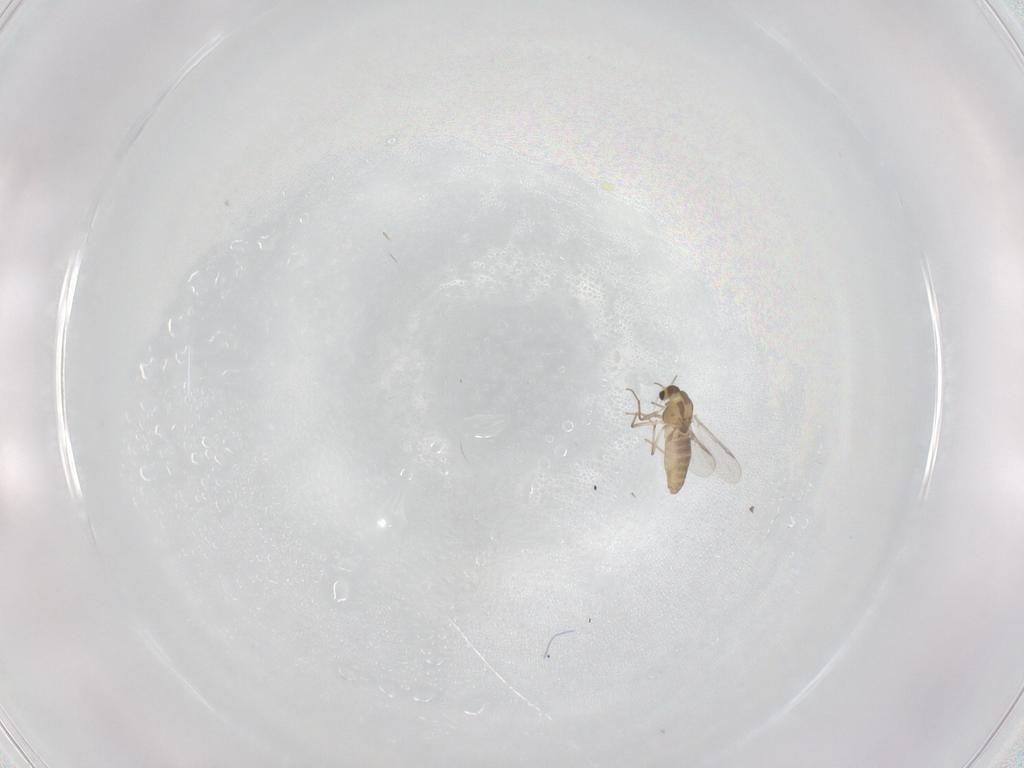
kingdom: Animalia
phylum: Arthropoda
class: Insecta
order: Diptera
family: Chironomidae
